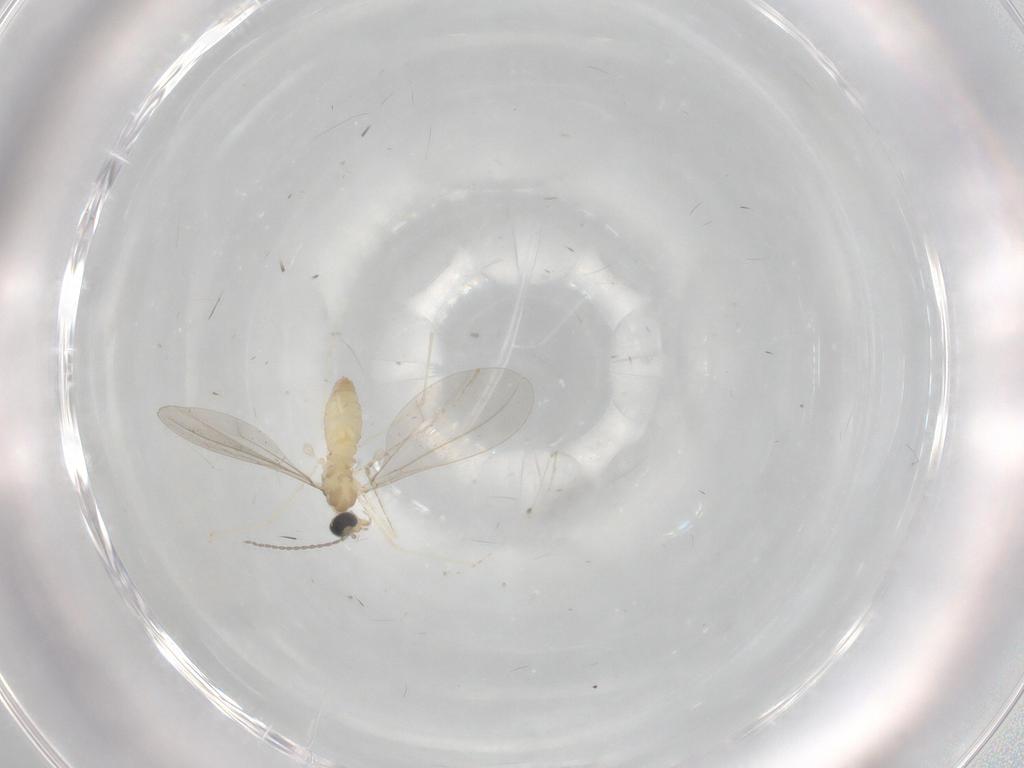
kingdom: Animalia
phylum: Arthropoda
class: Insecta
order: Diptera
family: Cecidomyiidae
